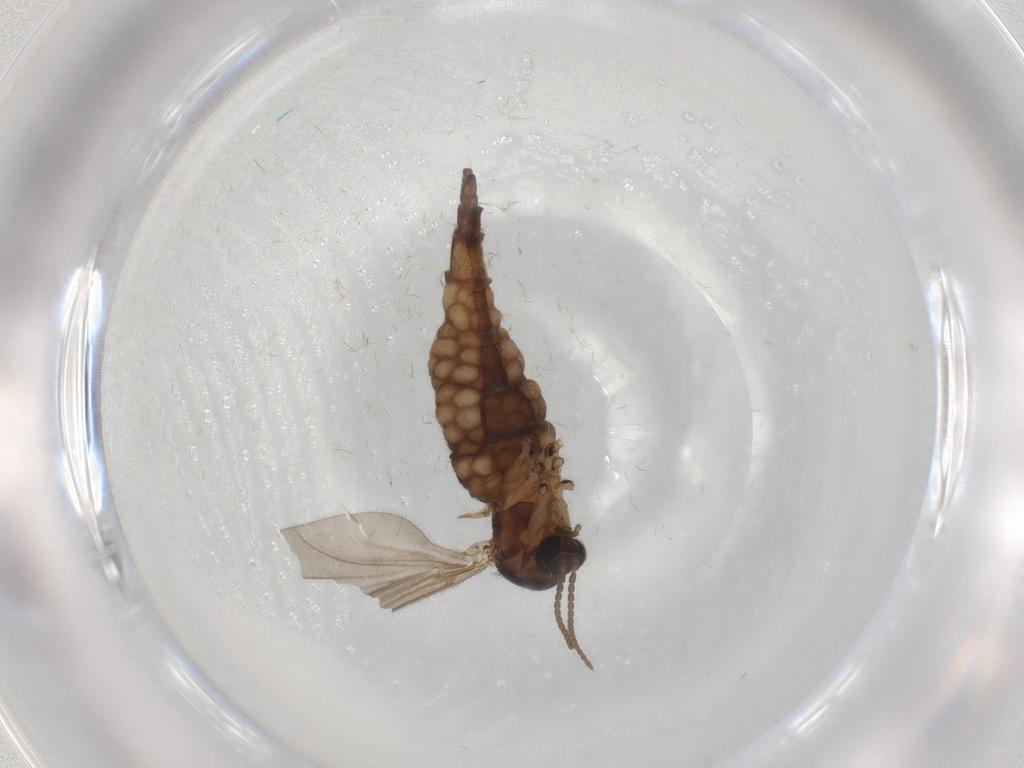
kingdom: Animalia
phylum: Arthropoda
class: Insecta
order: Diptera
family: Sciaridae
